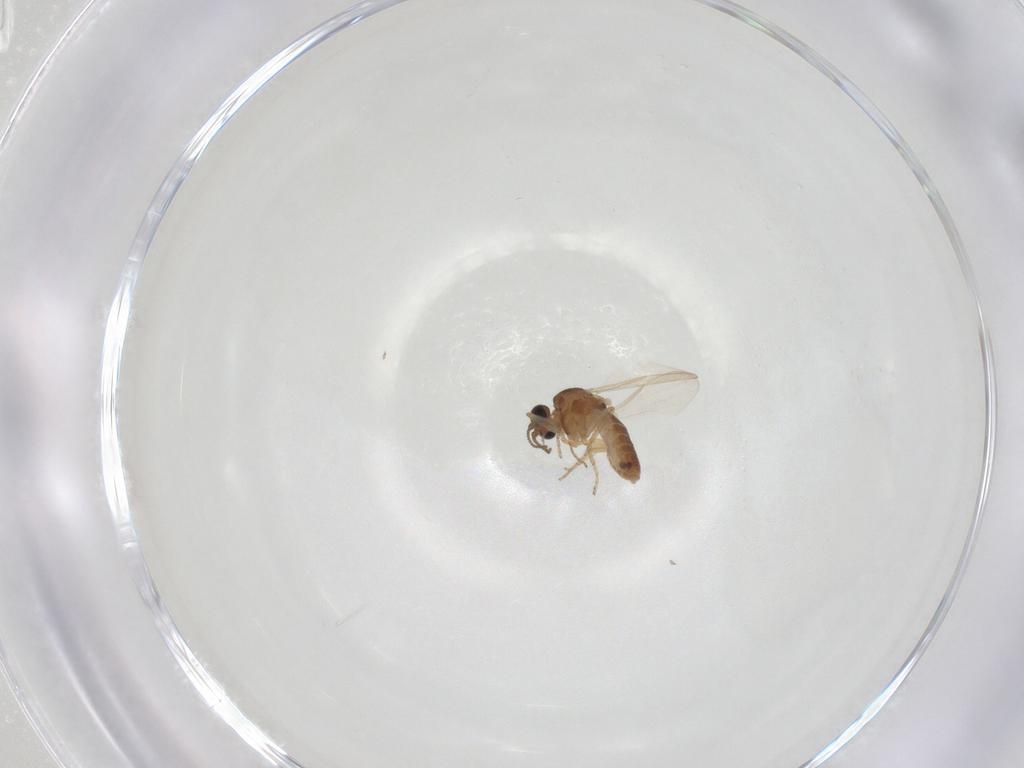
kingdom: Animalia
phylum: Arthropoda
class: Insecta
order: Diptera
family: Ceratopogonidae
